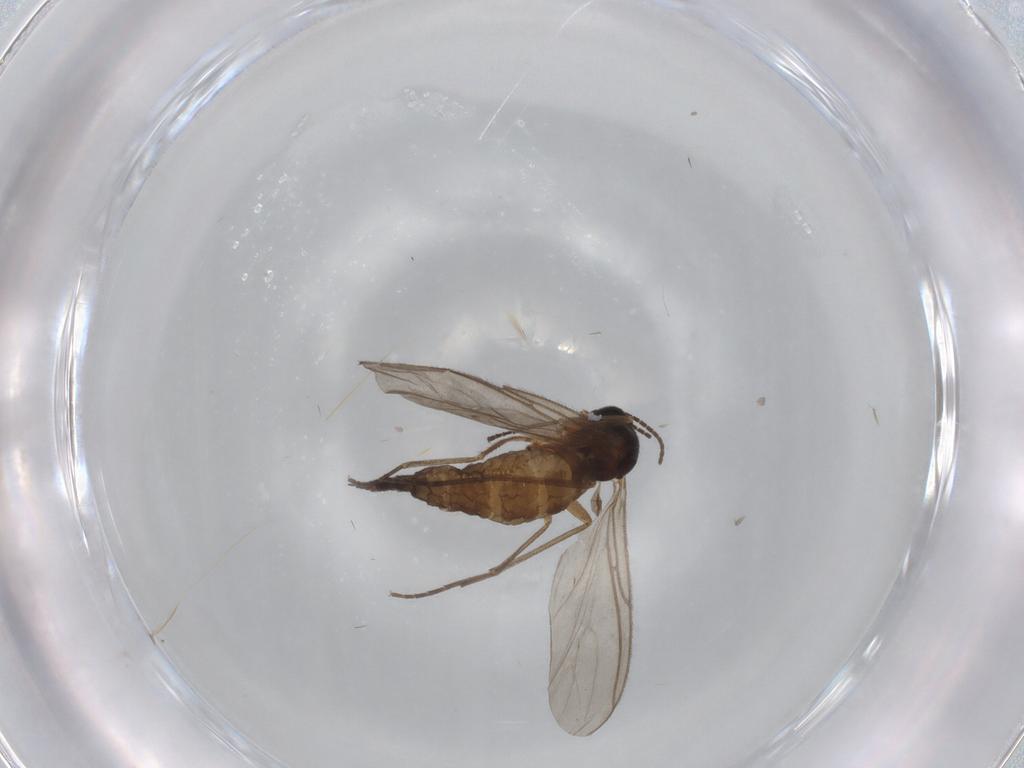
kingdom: Animalia
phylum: Arthropoda
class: Insecta
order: Diptera
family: Sciaridae
